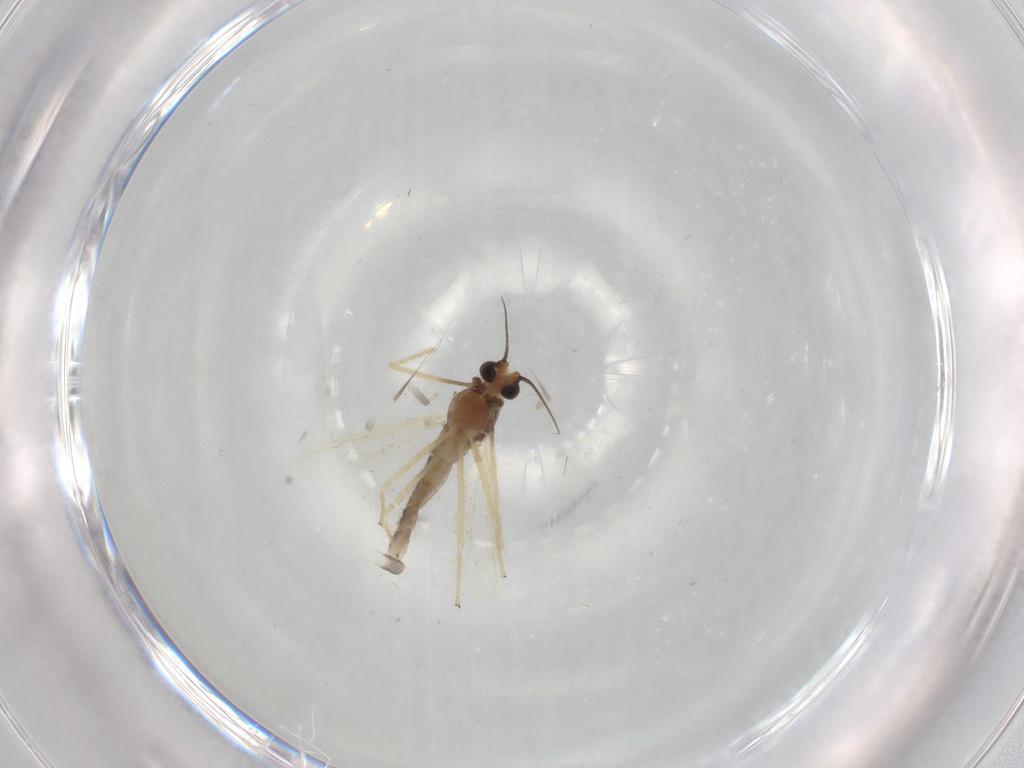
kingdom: Animalia
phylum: Arthropoda
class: Insecta
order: Diptera
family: Chironomidae
